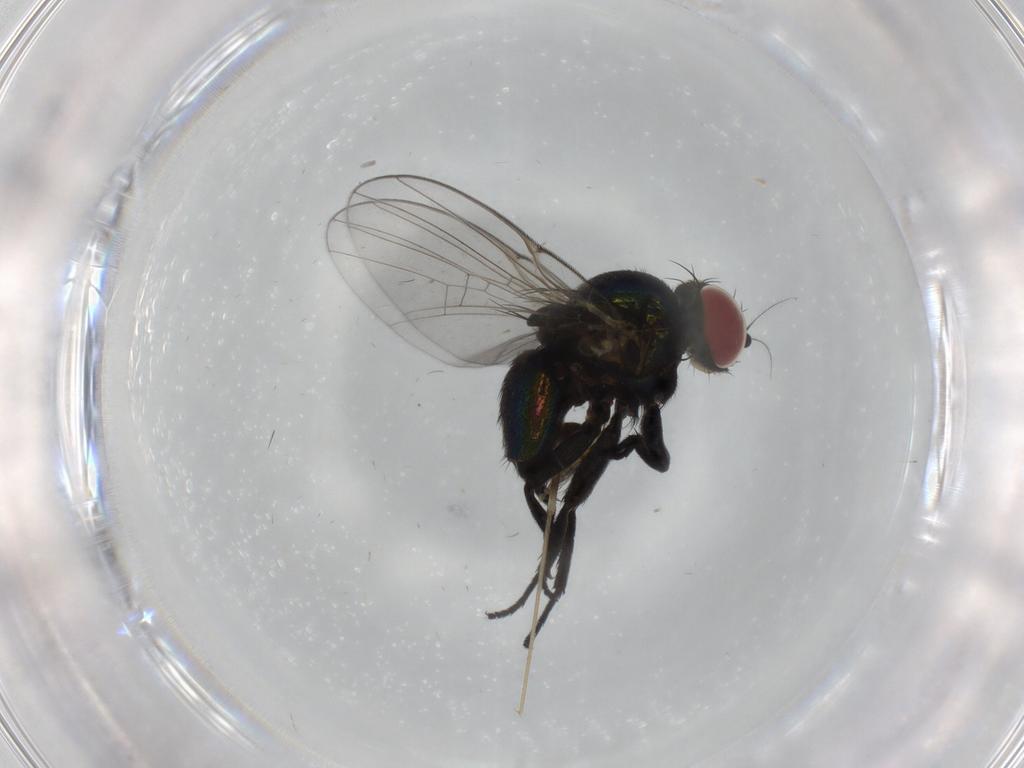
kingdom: Animalia
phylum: Arthropoda
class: Insecta
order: Diptera
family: Agromyzidae
